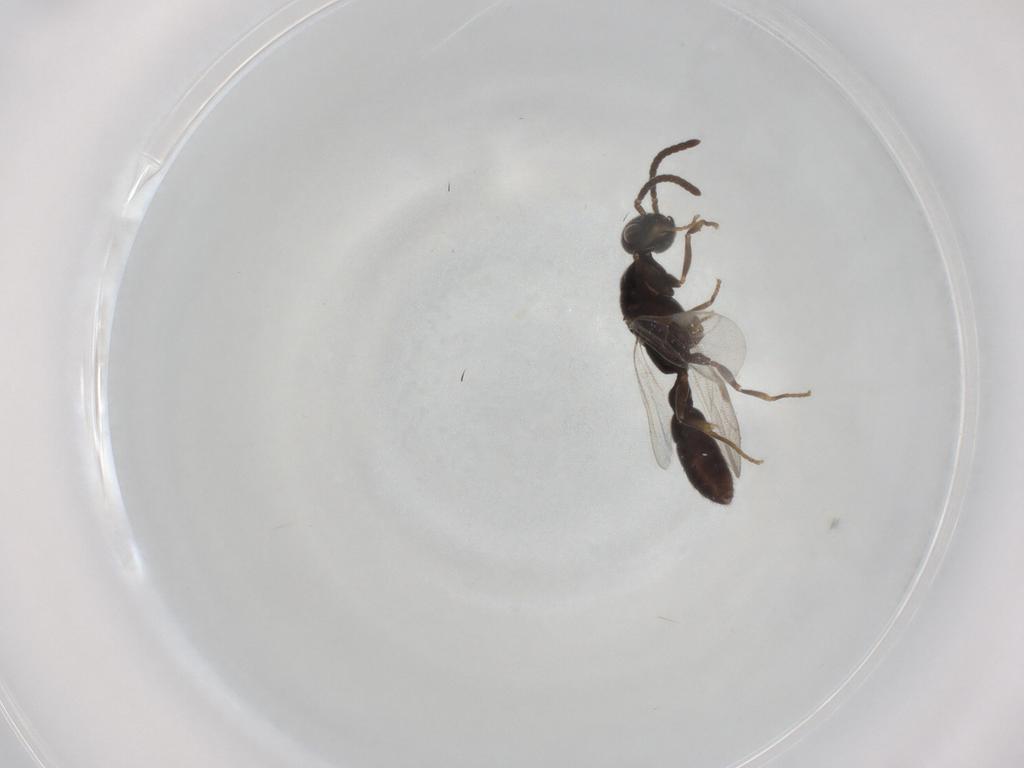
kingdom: Animalia
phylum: Arthropoda
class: Insecta
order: Hymenoptera
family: Formicidae
